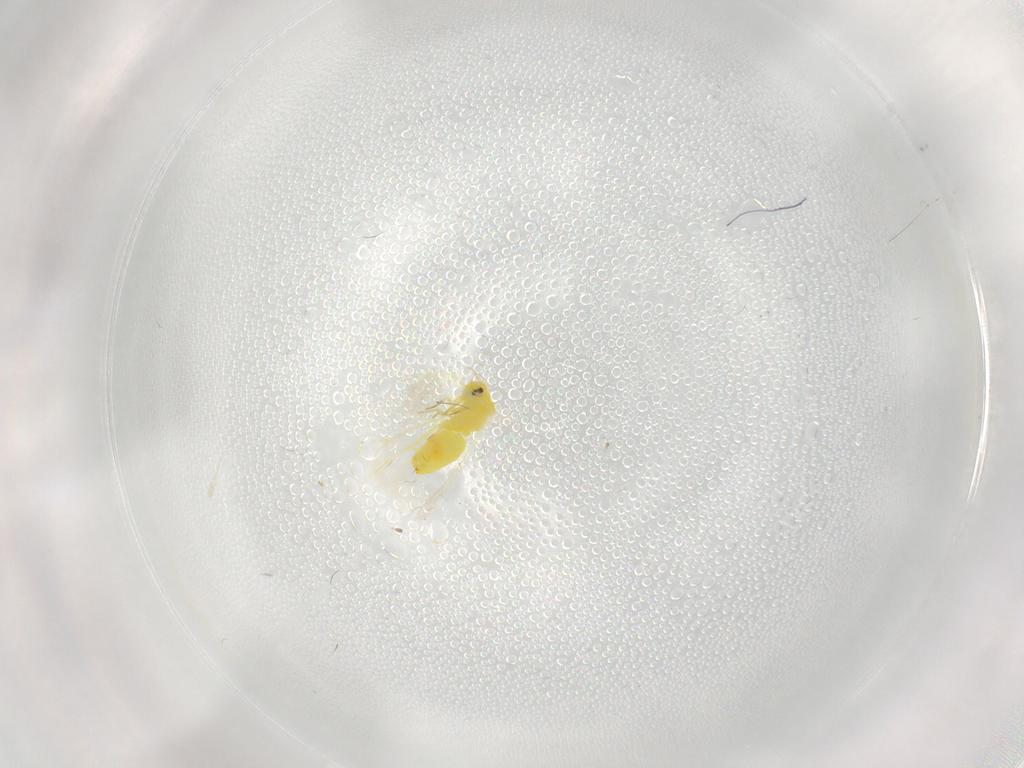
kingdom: Animalia
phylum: Arthropoda
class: Insecta
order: Hemiptera
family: Aleyrodidae
